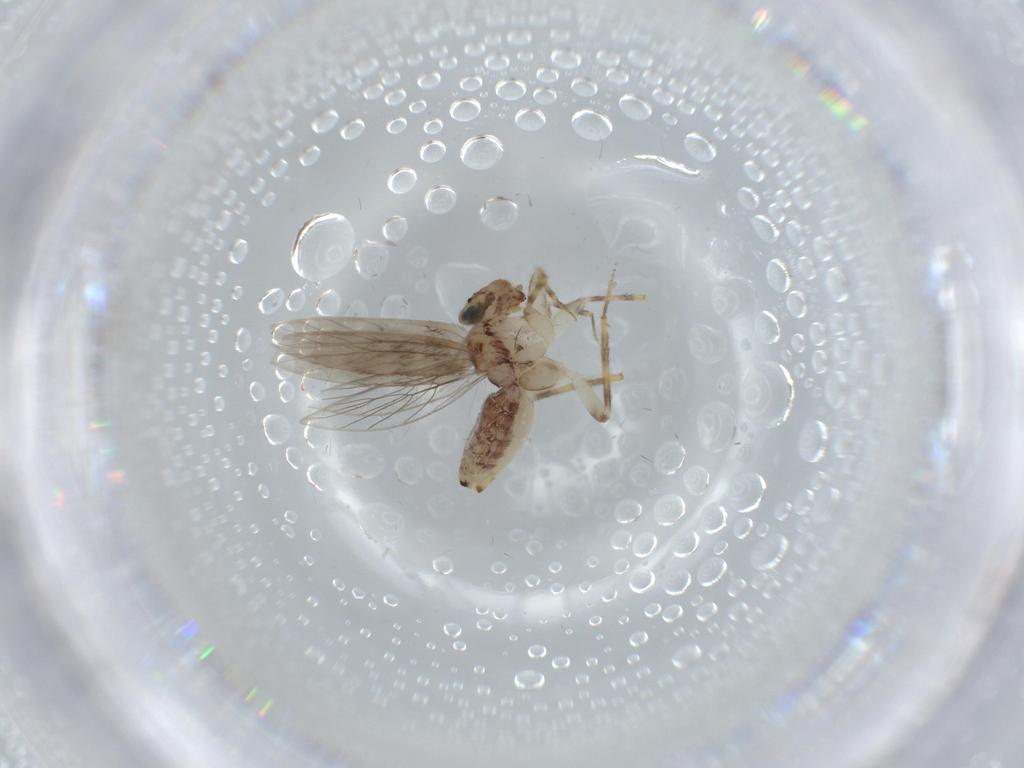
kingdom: Animalia
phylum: Arthropoda
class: Insecta
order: Psocodea
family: Lepidopsocidae
